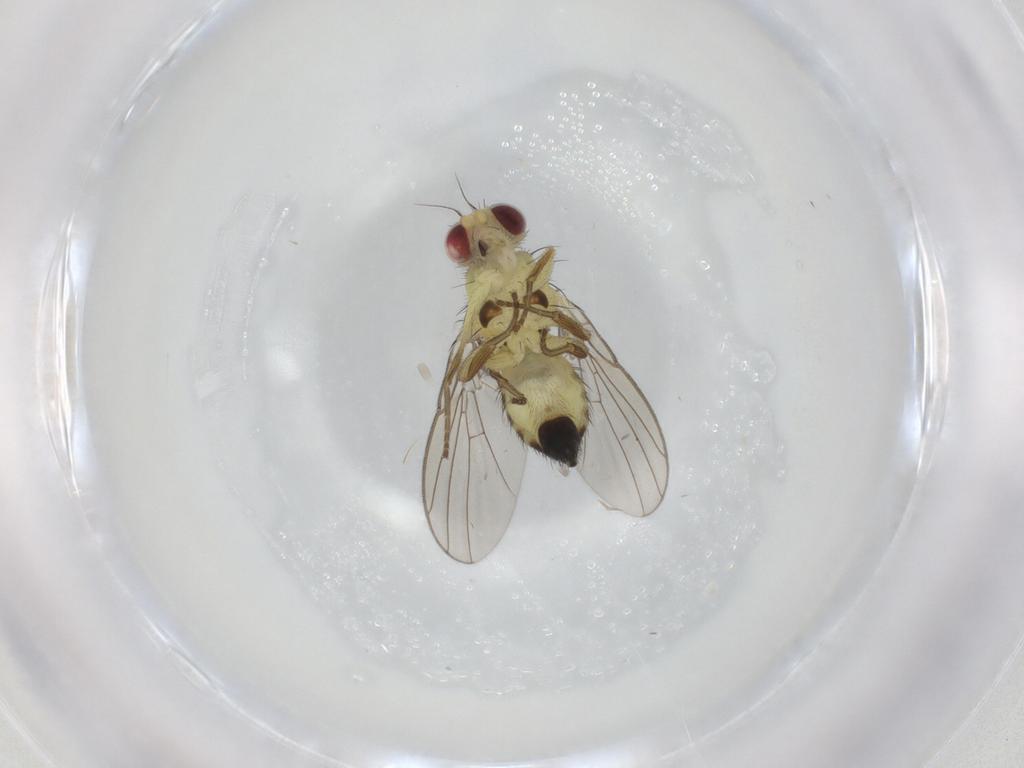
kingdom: Animalia
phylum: Arthropoda
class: Insecta
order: Diptera
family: Agromyzidae
